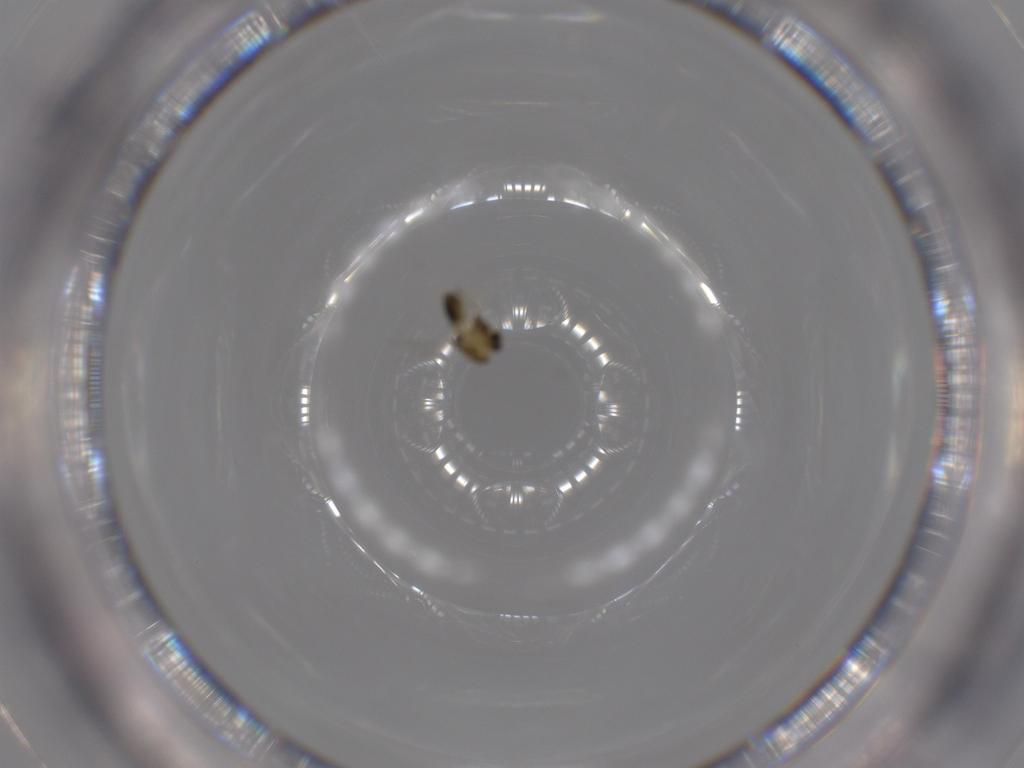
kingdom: Animalia
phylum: Arthropoda
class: Insecta
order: Diptera
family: Chironomidae
